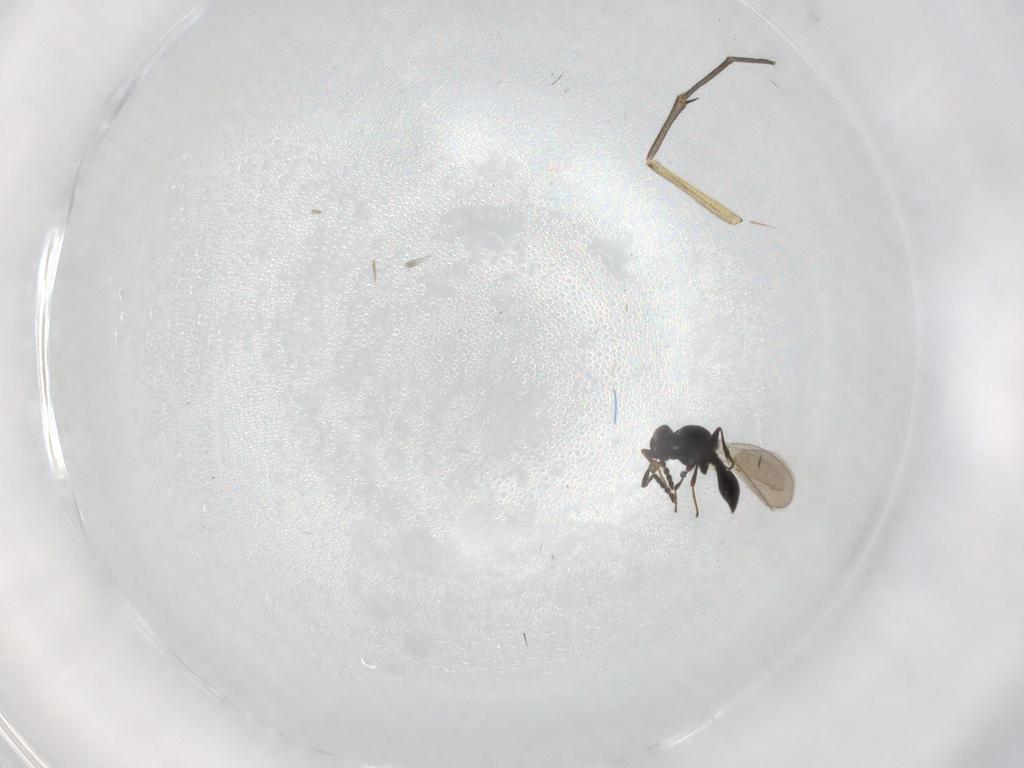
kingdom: Animalia
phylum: Arthropoda
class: Insecta
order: Hymenoptera
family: Platygastridae
